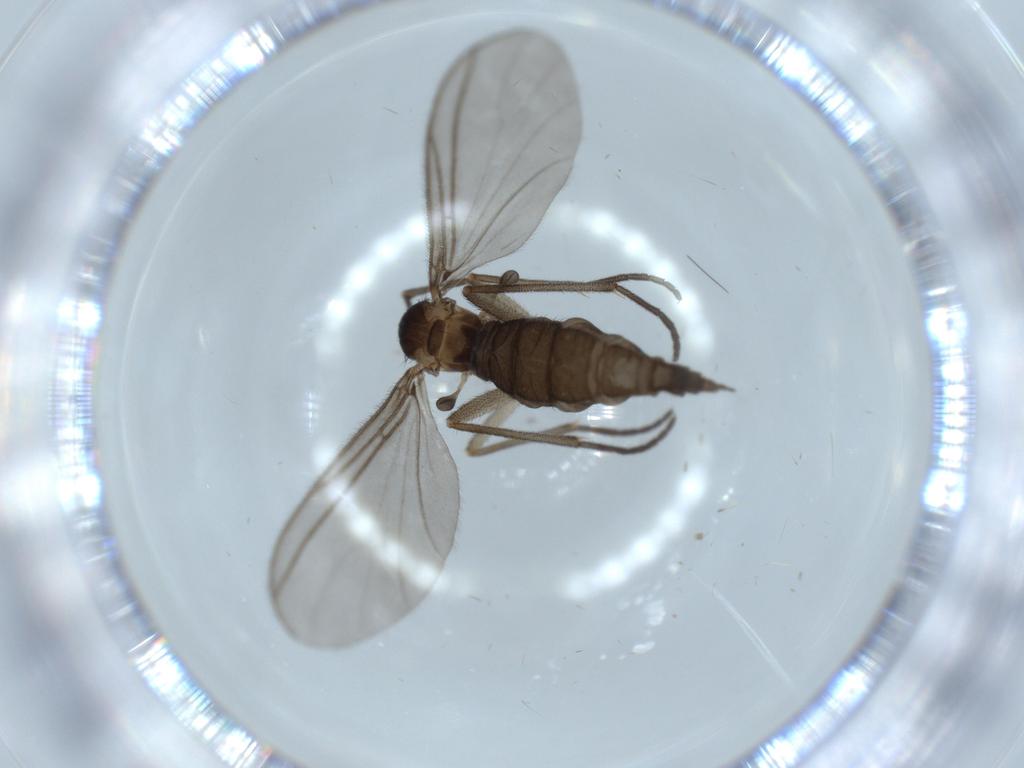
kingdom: Animalia
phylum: Arthropoda
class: Insecta
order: Diptera
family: Sciaridae
